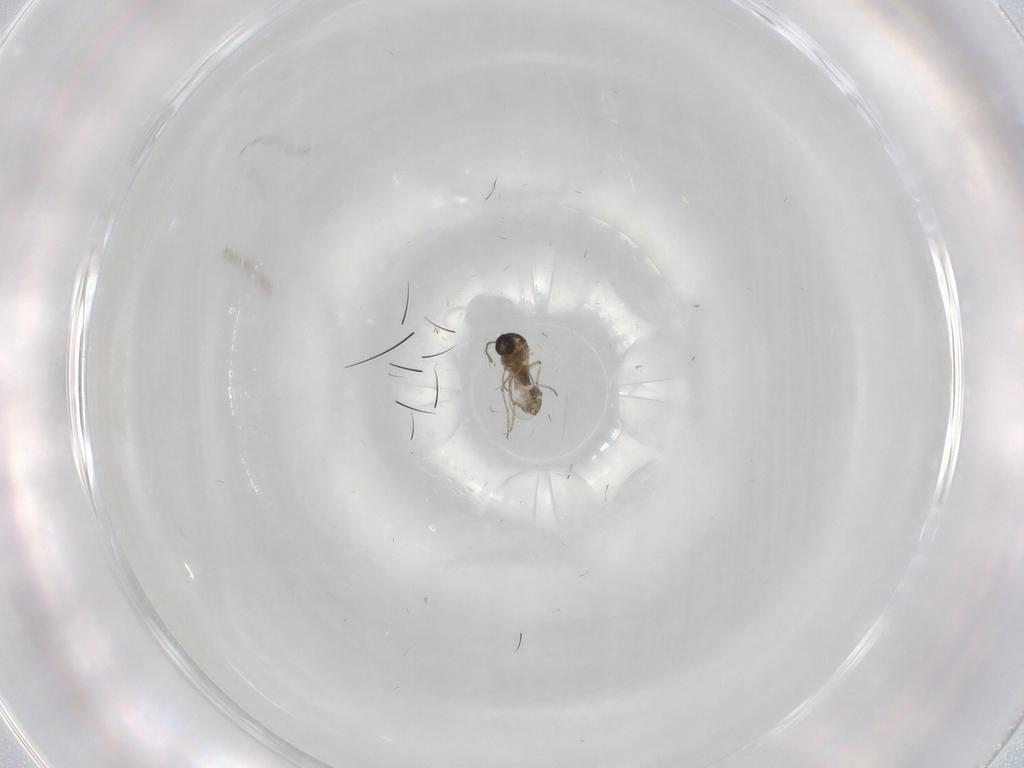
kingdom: Animalia
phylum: Arthropoda
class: Insecta
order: Diptera
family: Ceratopogonidae
